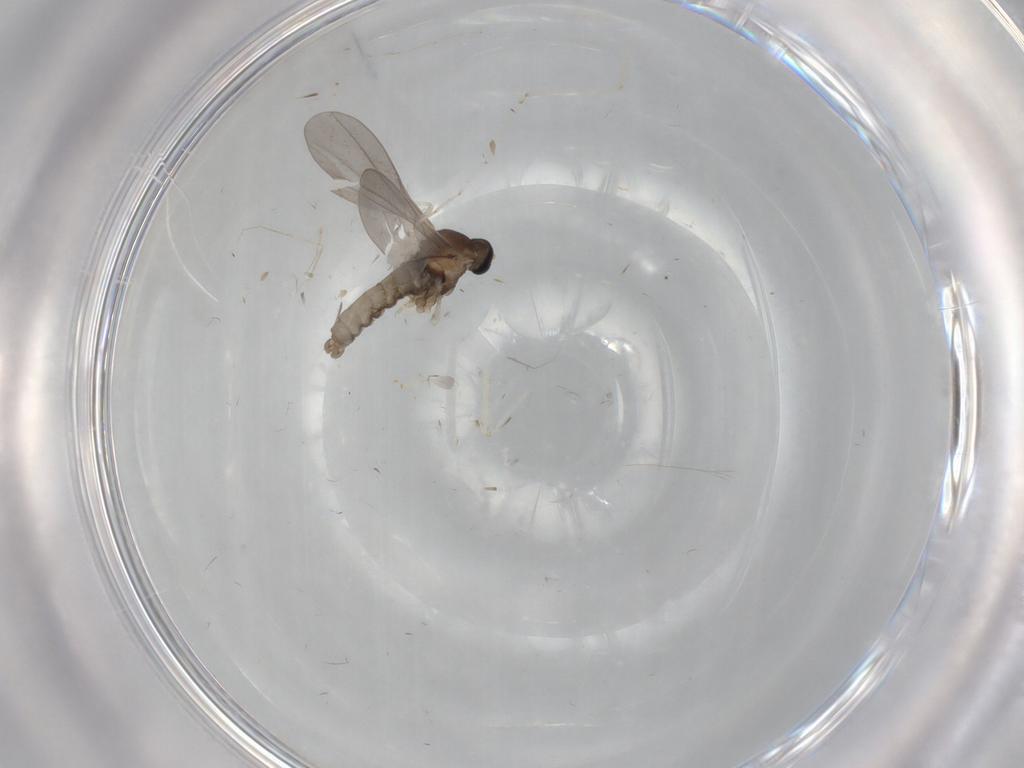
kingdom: Animalia
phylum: Arthropoda
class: Insecta
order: Diptera
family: Cecidomyiidae
